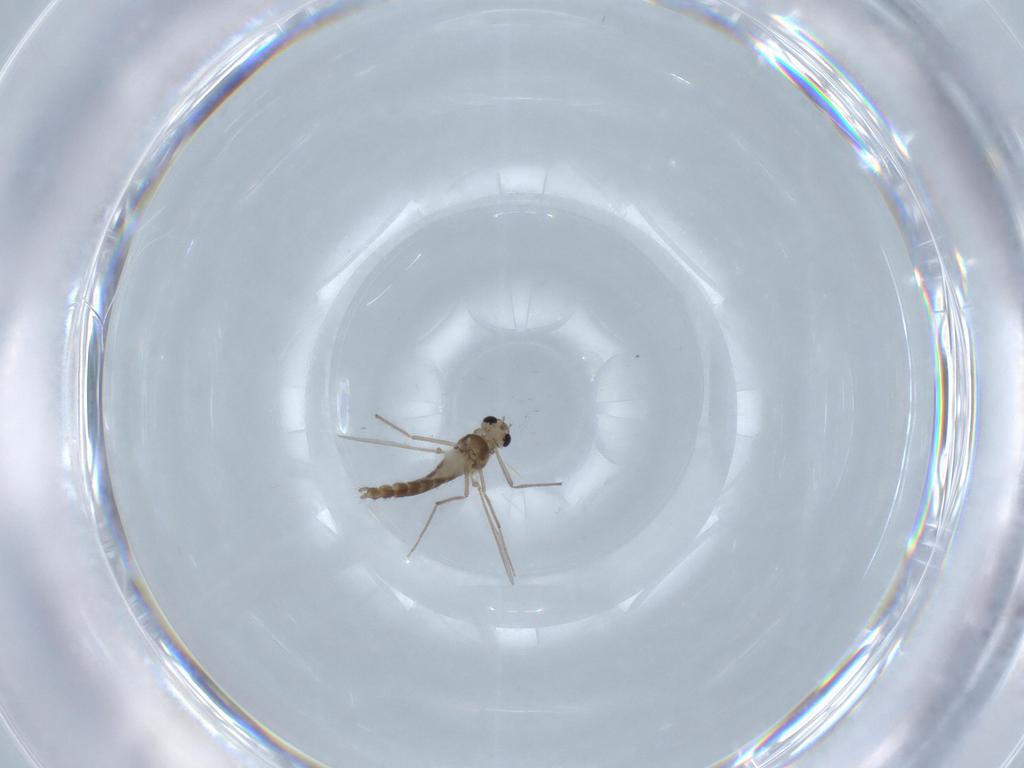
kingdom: Animalia
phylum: Arthropoda
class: Insecta
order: Diptera
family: Chironomidae
